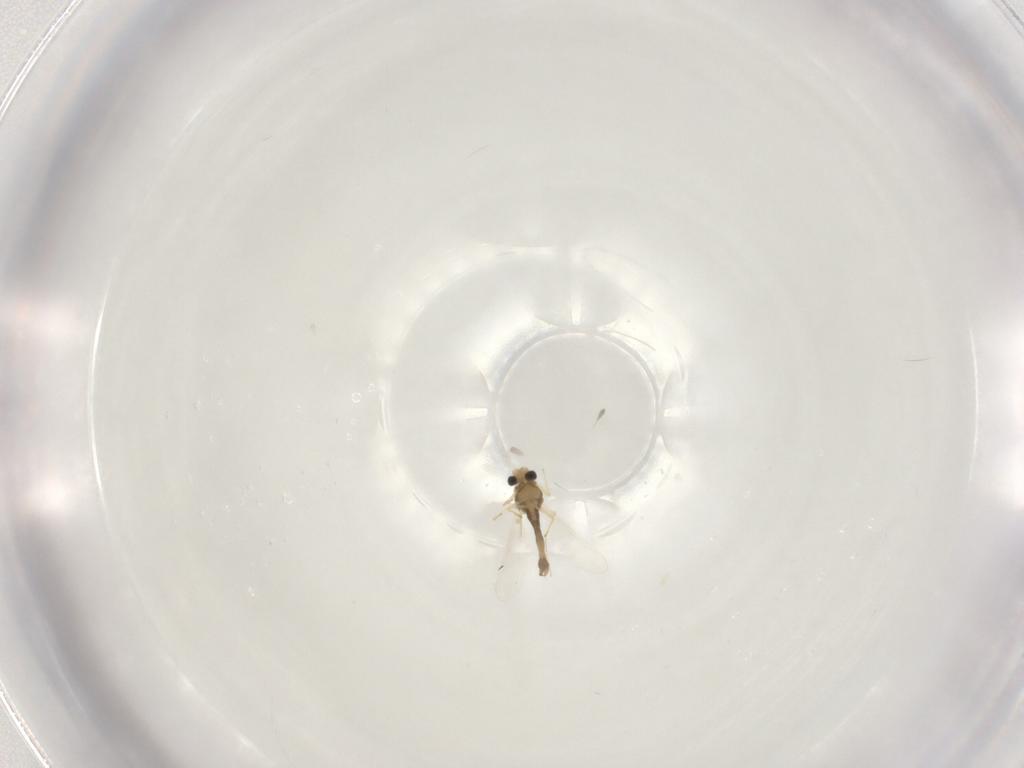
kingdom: Animalia
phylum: Arthropoda
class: Insecta
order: Diptera
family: Chironomidae
